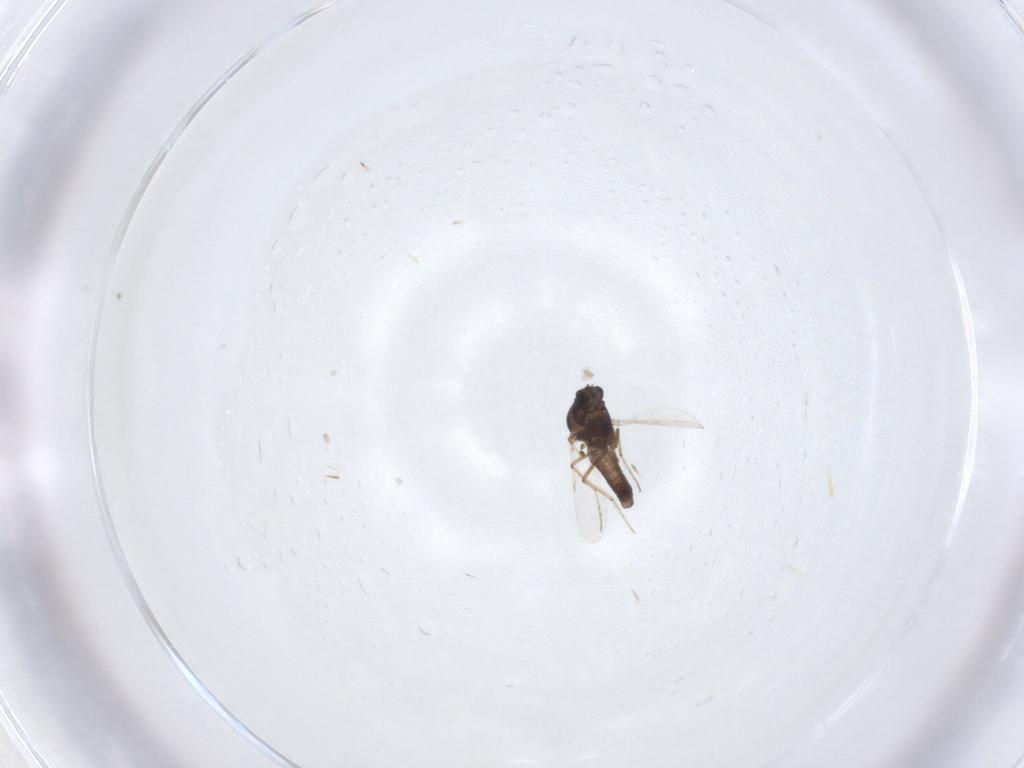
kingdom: Animalia
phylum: Arthropoda
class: Insecta
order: Diptera
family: Ceratopogonidae
